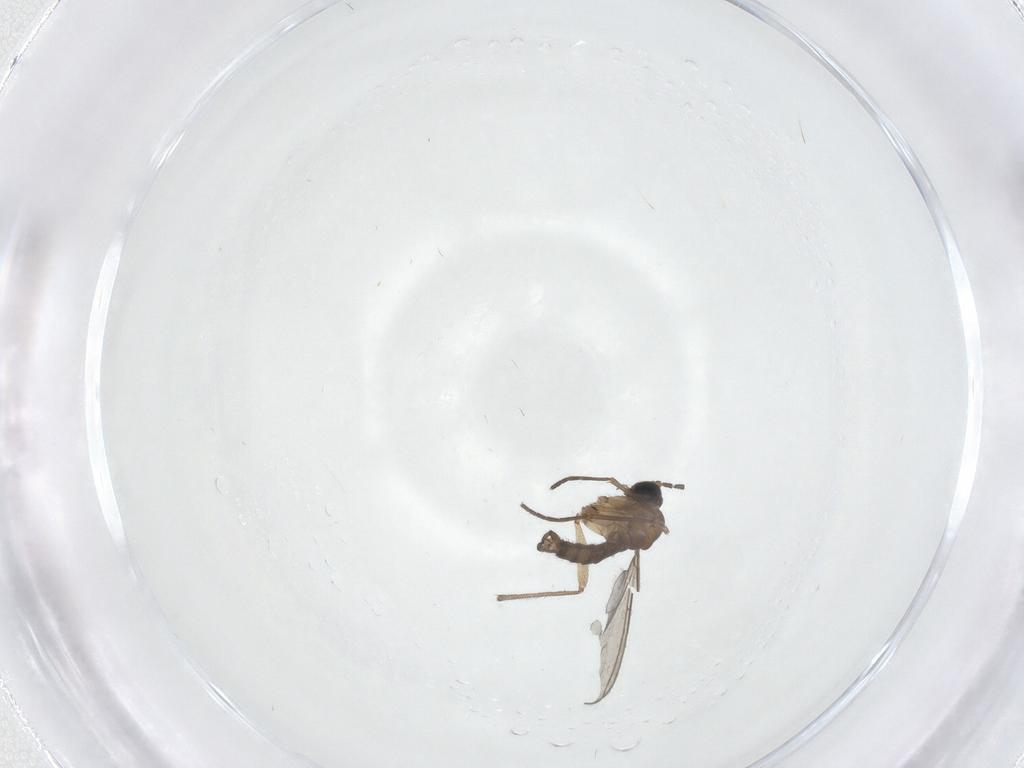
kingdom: Animalia
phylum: Arthropoda
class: Insecta
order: Diptera
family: Sciaridae
